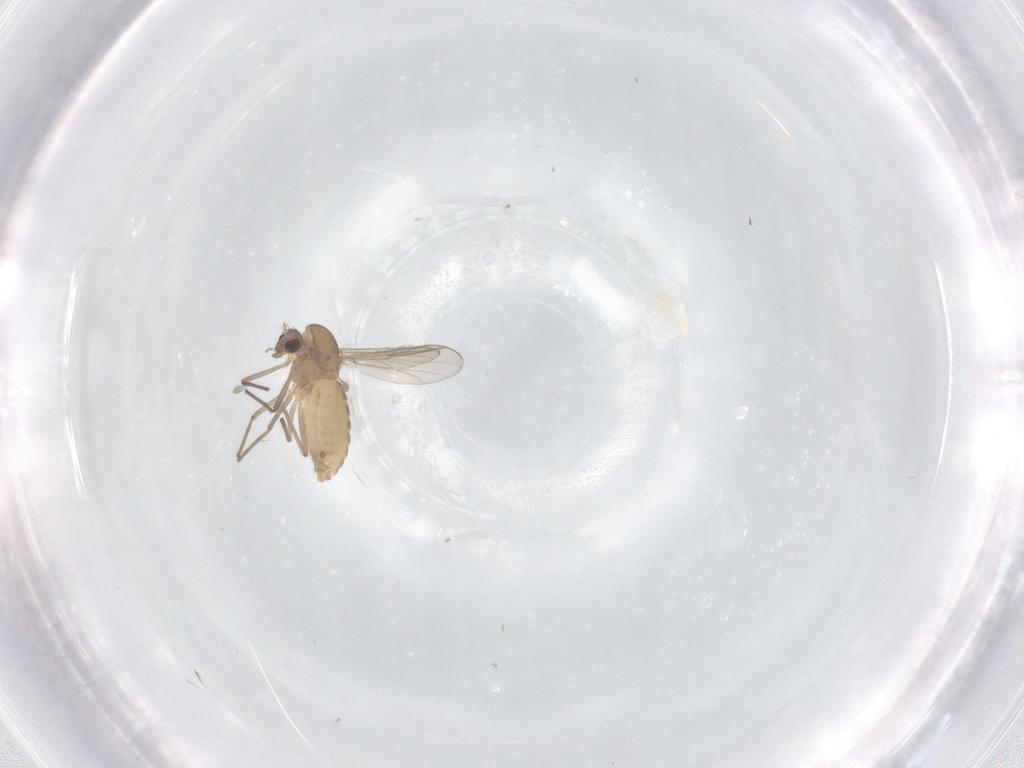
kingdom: Animalia
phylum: Arthropoda
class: Insecta
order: Diptera
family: Chironomidae
